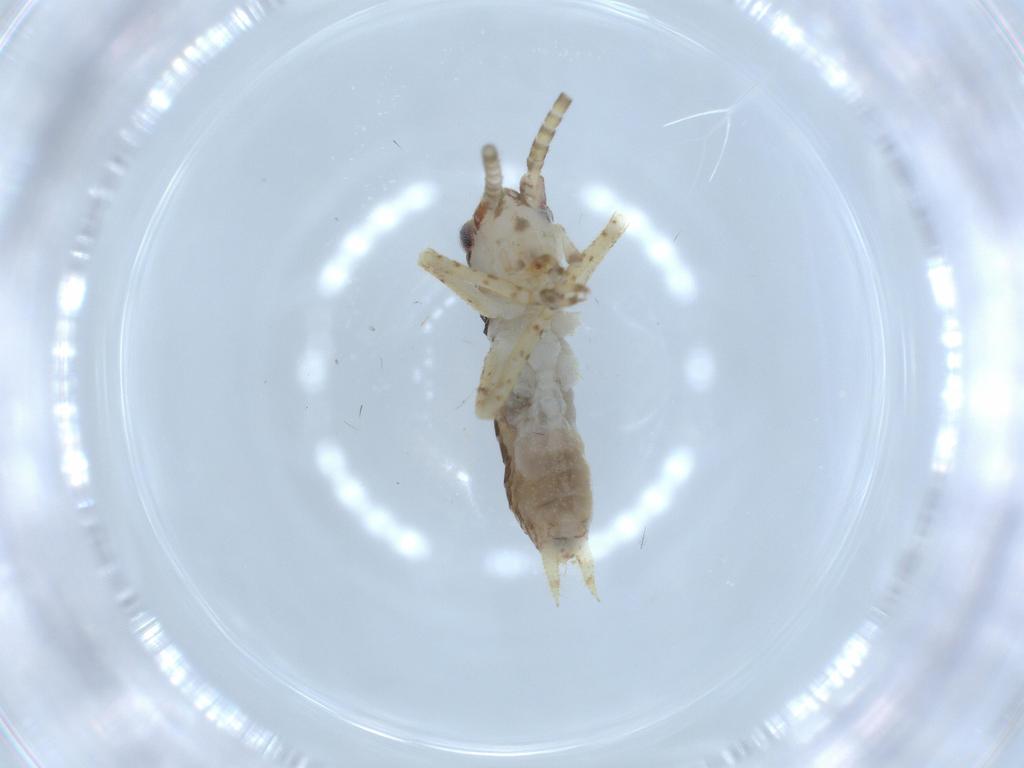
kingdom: Animalia
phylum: Arthropoda
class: Insecta
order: Orthoptera
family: Gryllidae
